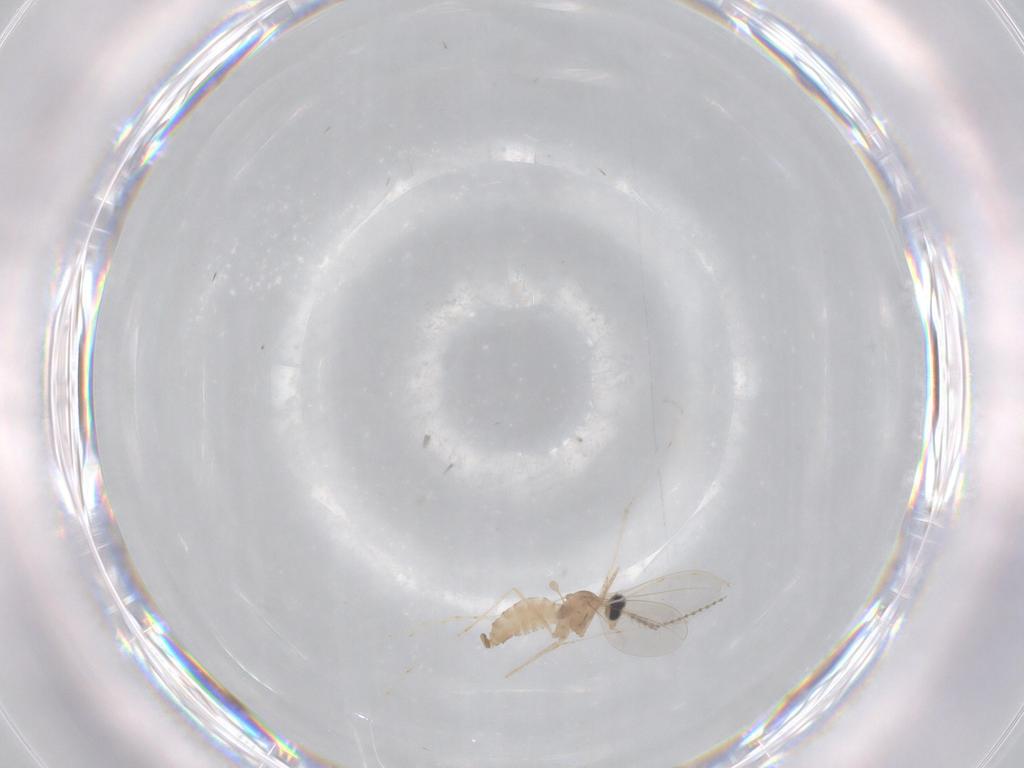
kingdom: Animalia
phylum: Arthropoda
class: Insecta
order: Diptera
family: Cecidomyiidae
